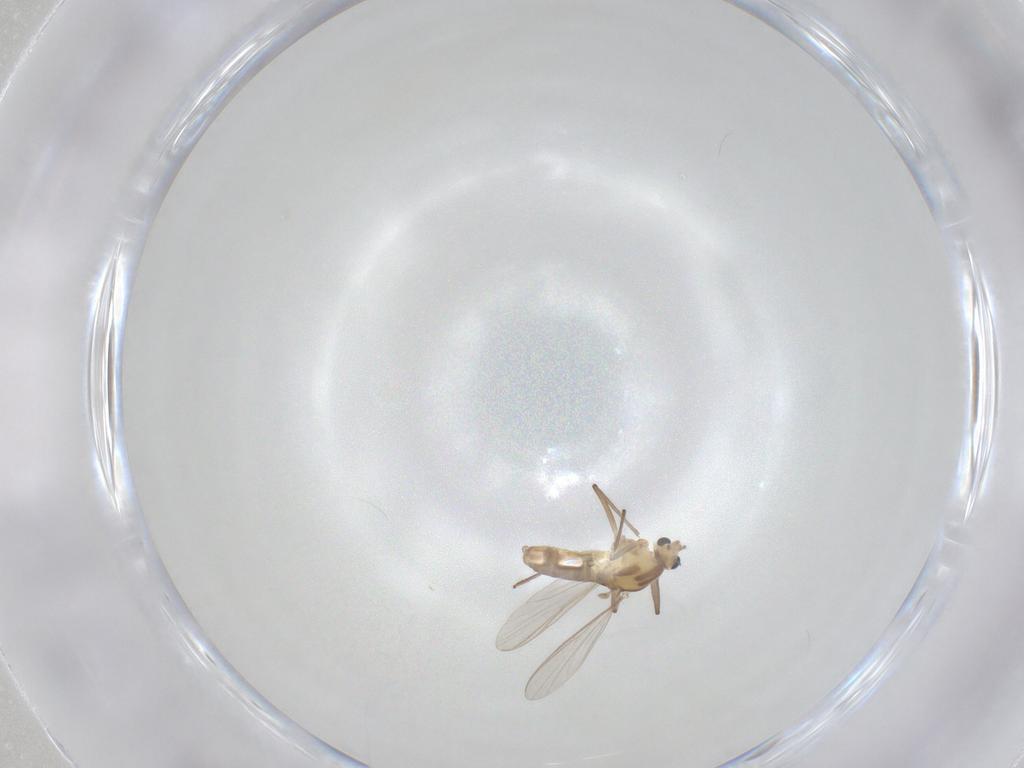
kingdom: Animalia
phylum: Arthropoda
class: Insecta
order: Diptera
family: Chironomidae
